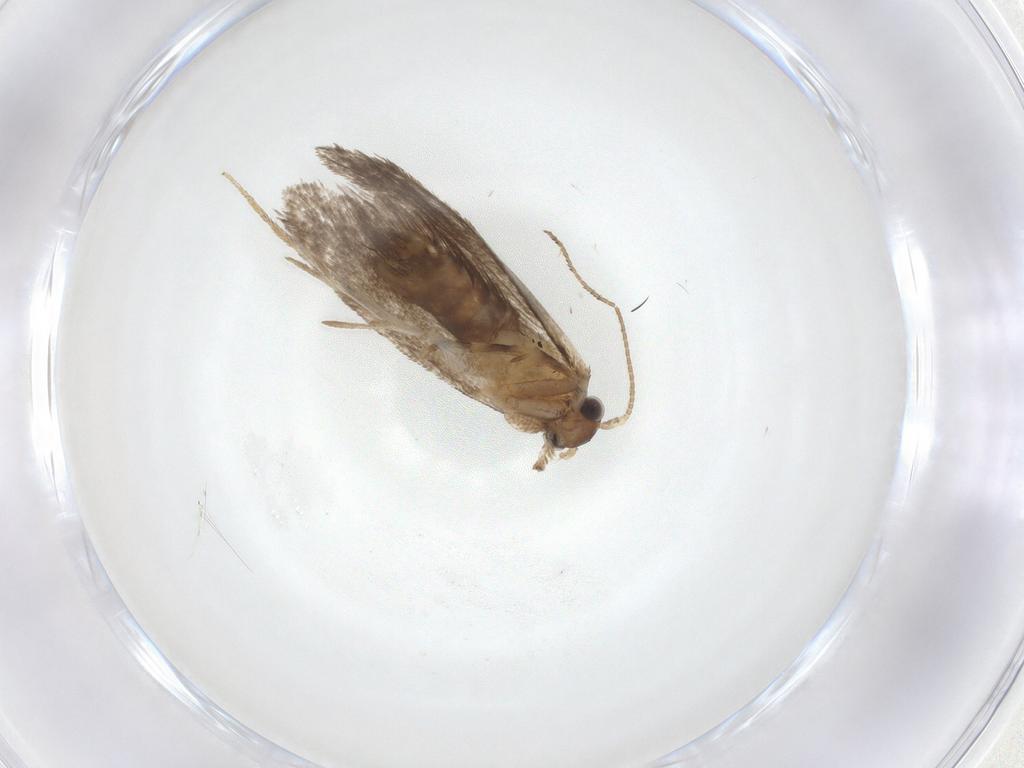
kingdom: Animalia
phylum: Arthropoda
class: Insecta
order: Lepidoptera
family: Dryadaulidae
